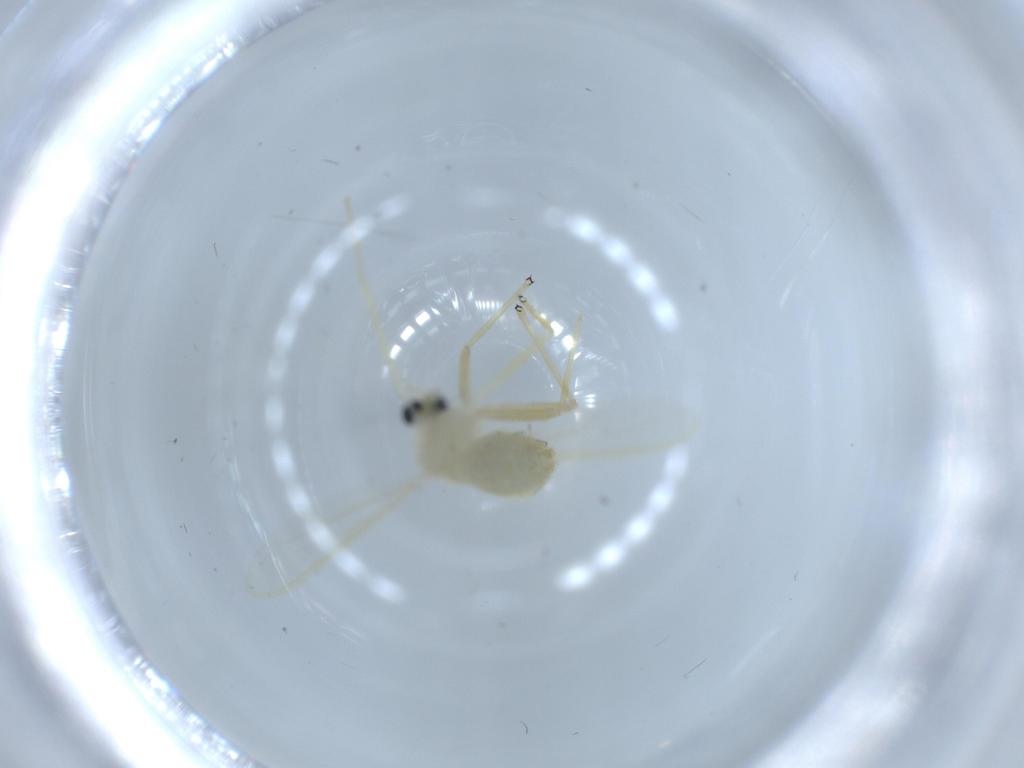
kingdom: Animalia
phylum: Arthropoda
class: Insecta
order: Diptera
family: Chironomidae
